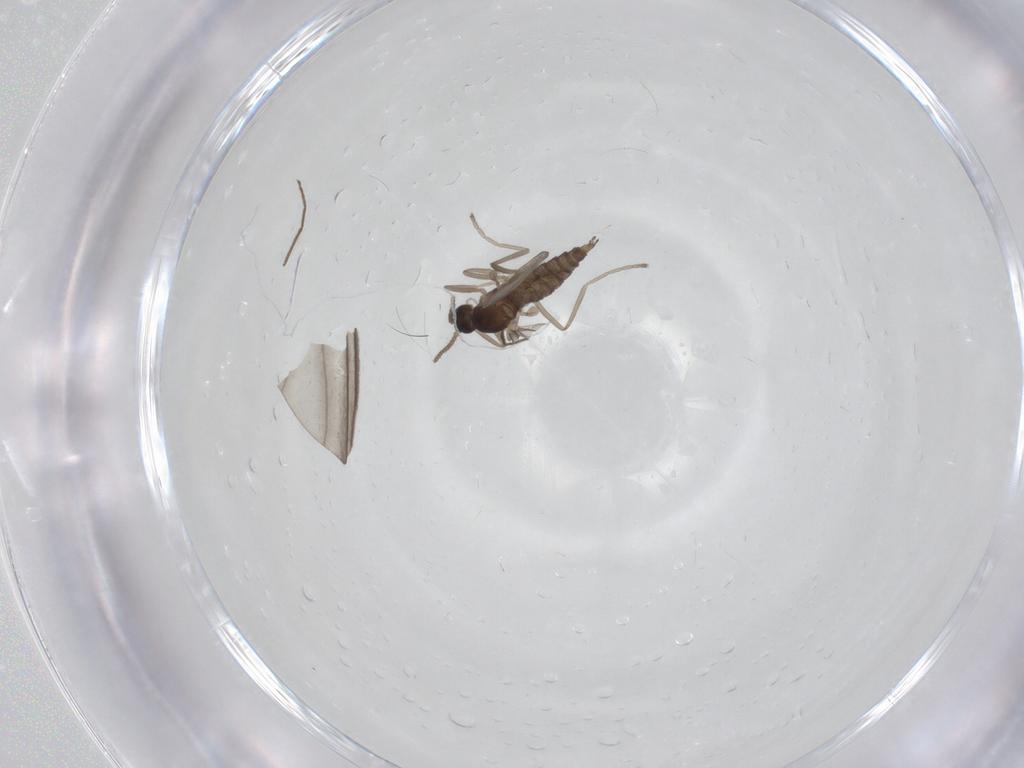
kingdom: Animalia
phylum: Arthropoda
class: Insecta
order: Diptera
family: Cecidomyiidae
